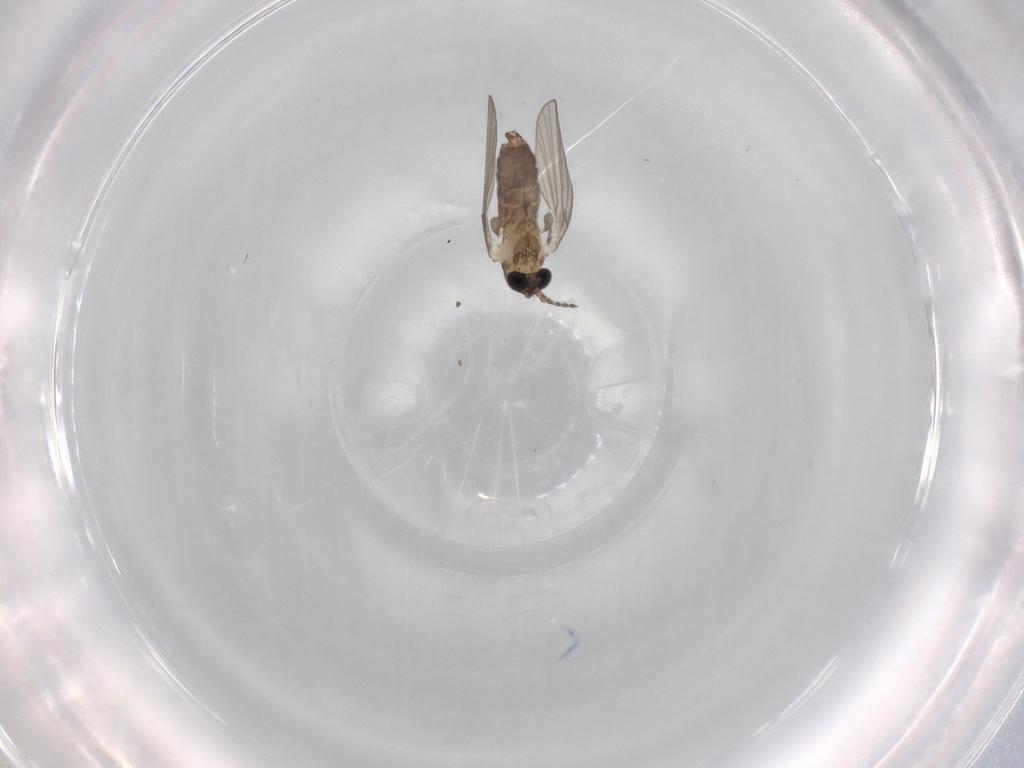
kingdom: Animalia
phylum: Arthropoda
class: Insecta
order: Diptera
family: Psychodidae
